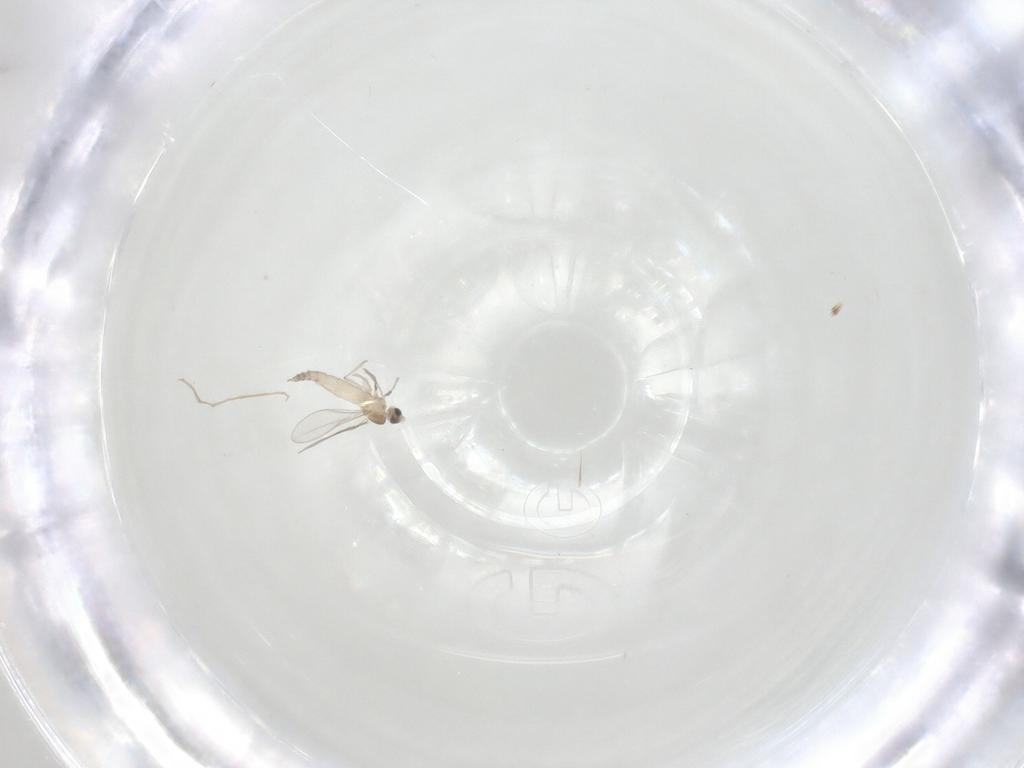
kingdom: Animalia
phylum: Arthropoda
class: Insecta
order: Diptera
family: Cecidomyiidae
